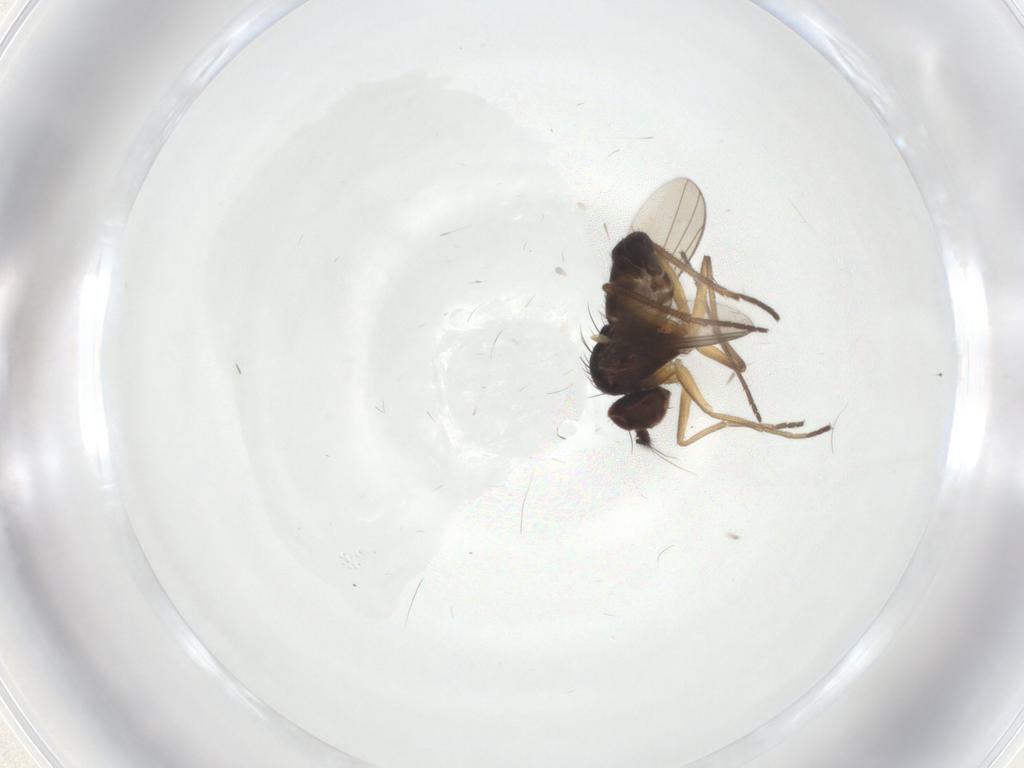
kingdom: Animalia
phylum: Arthropoda
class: Insecta
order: Diptera
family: Dolichopodidae
